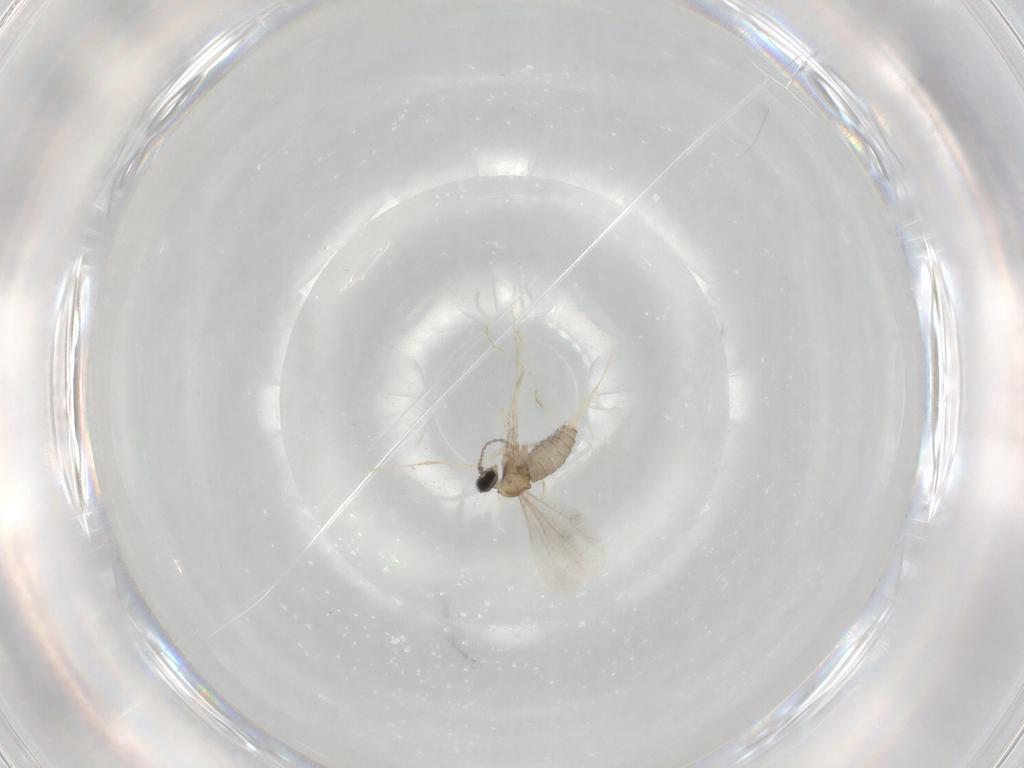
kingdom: Animalia
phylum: Arthropoda
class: Insecta
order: Diptera
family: Cecidomyiidae
